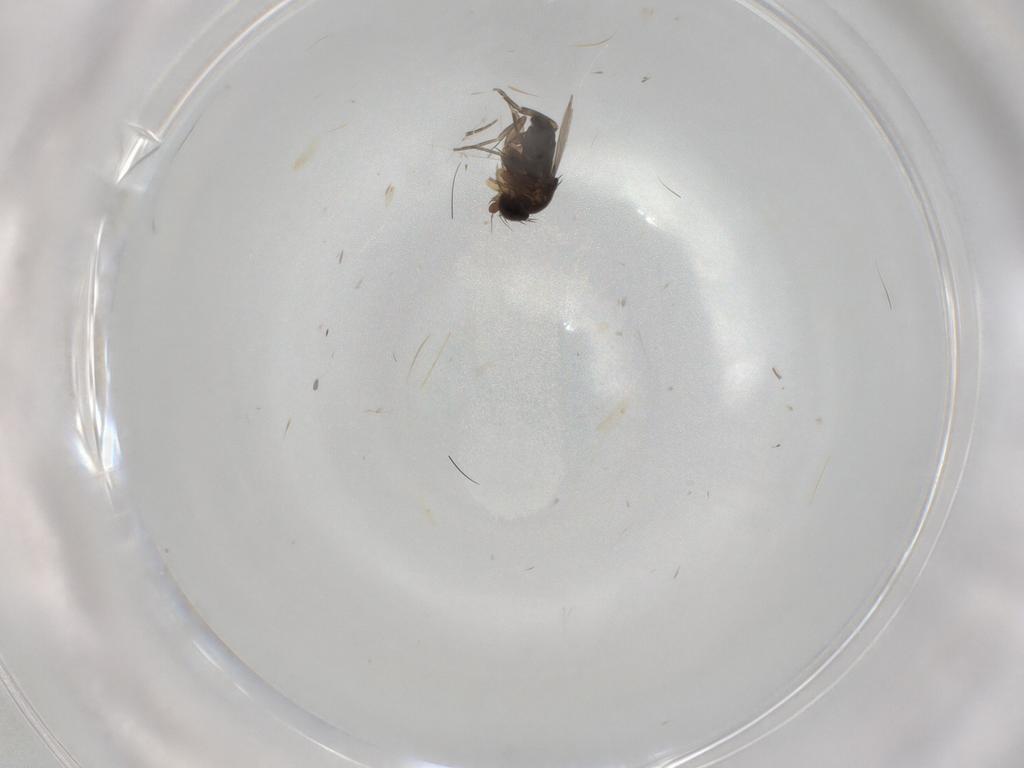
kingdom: Animalia
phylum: Arthropoda
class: Insecta
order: Diptera
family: Phoridae
